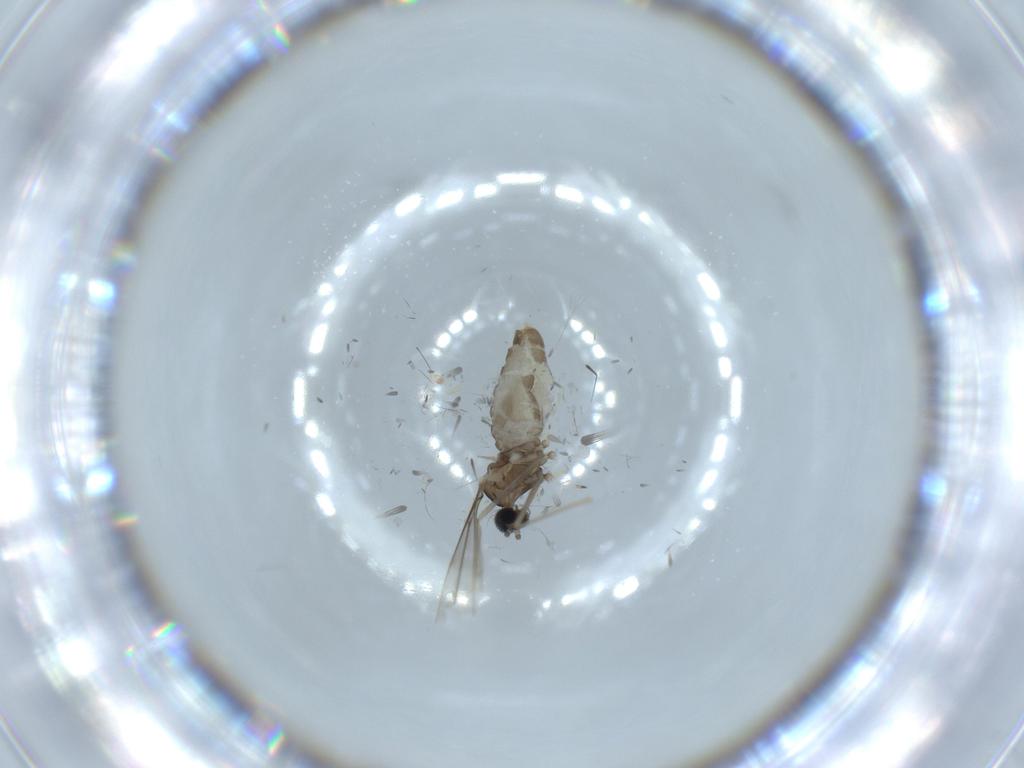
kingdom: Animalia
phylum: Arthropoda
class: Insecta
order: Diptera
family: Cecidomyiidae
